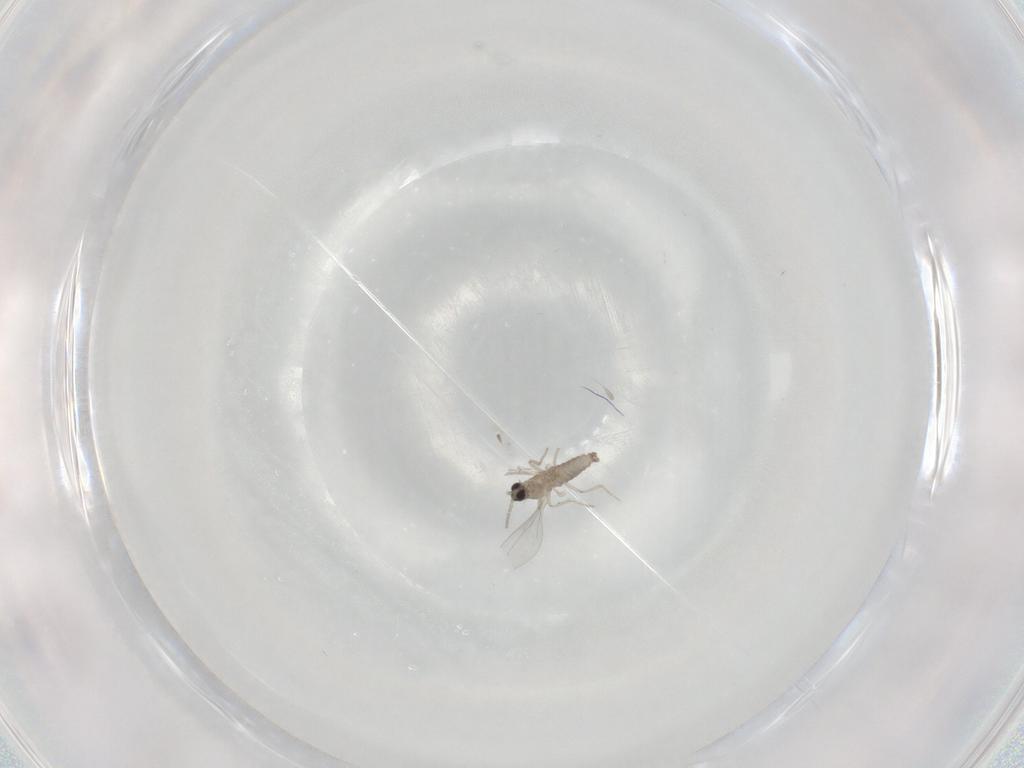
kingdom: Animalia
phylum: Arthropoda
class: Insecta
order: Diptera
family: Cecidomyiidae
